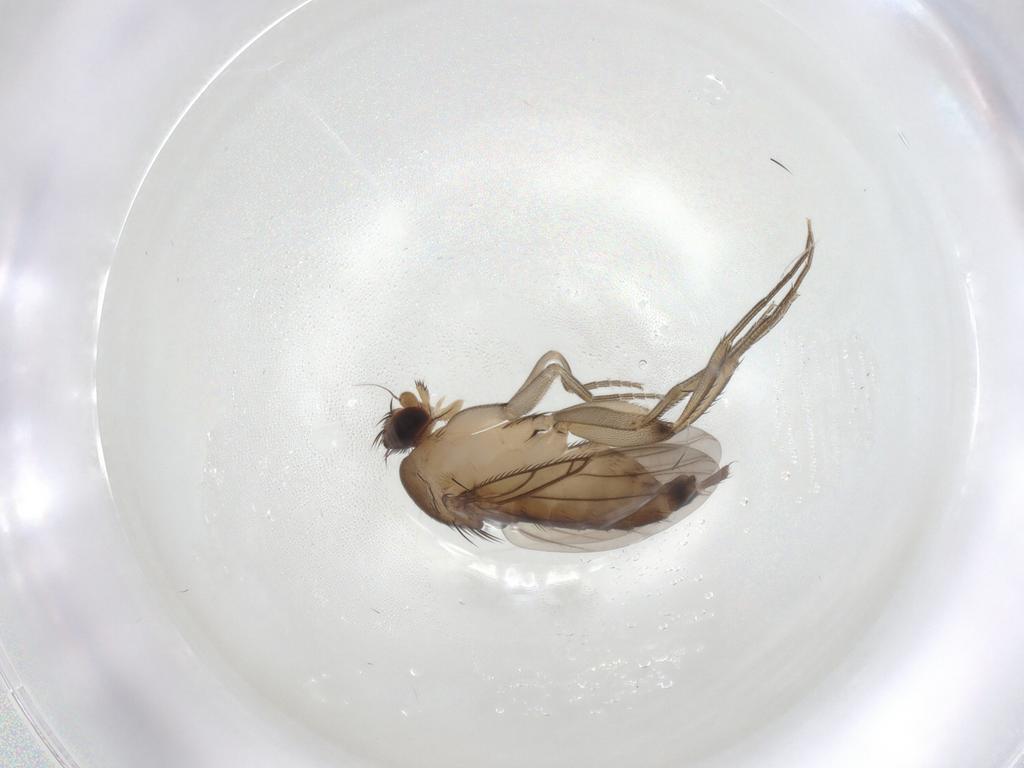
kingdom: Animalia
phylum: Arthropoda
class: Insecta
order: Diptera
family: Phoridae
